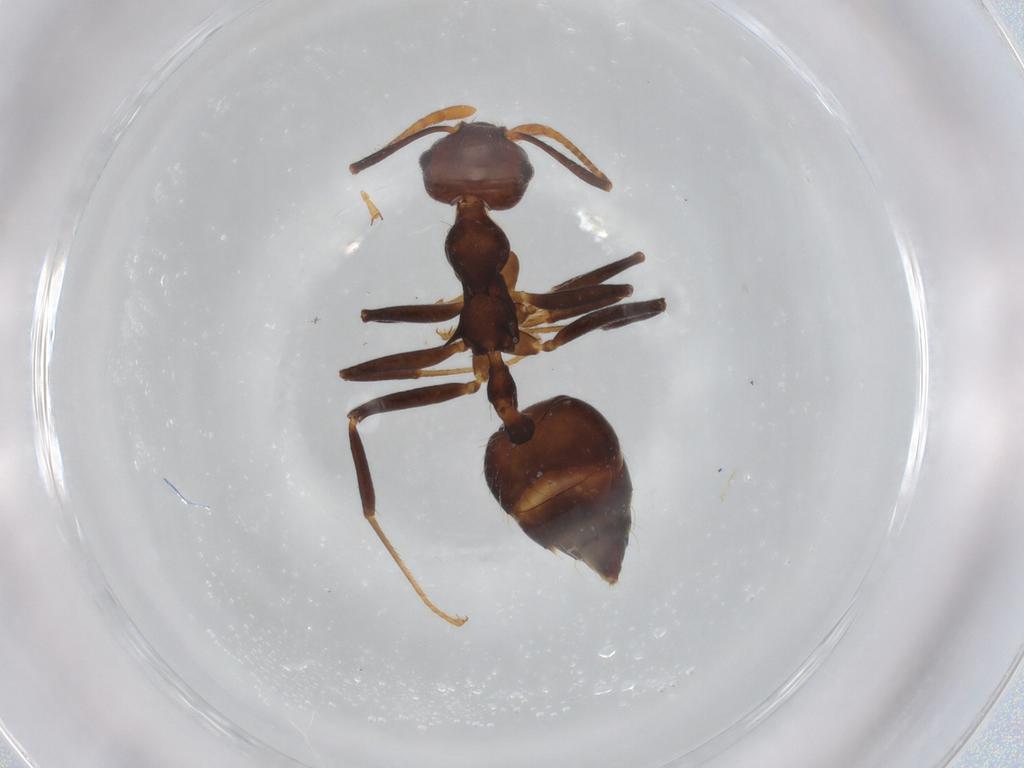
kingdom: Animalia
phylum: Arthropoda
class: Insecta
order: Hymenoptera
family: Formicidae
